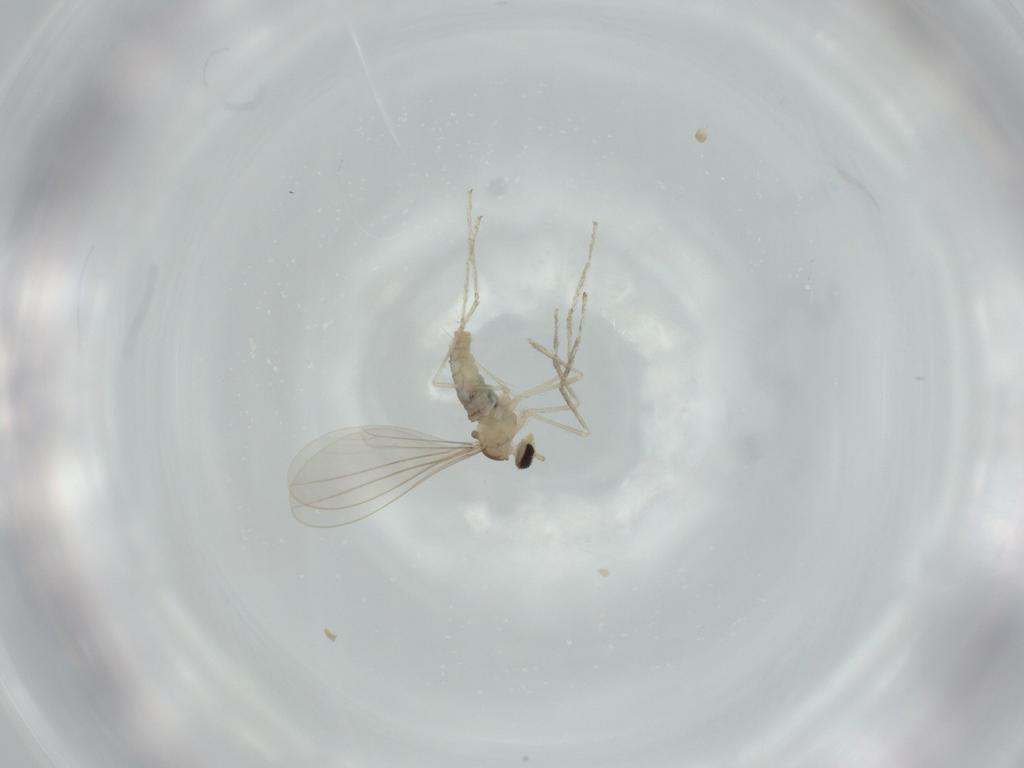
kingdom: Animalia
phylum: Arthropoda
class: Insecta
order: Diptera
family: Cecidomyiidae
